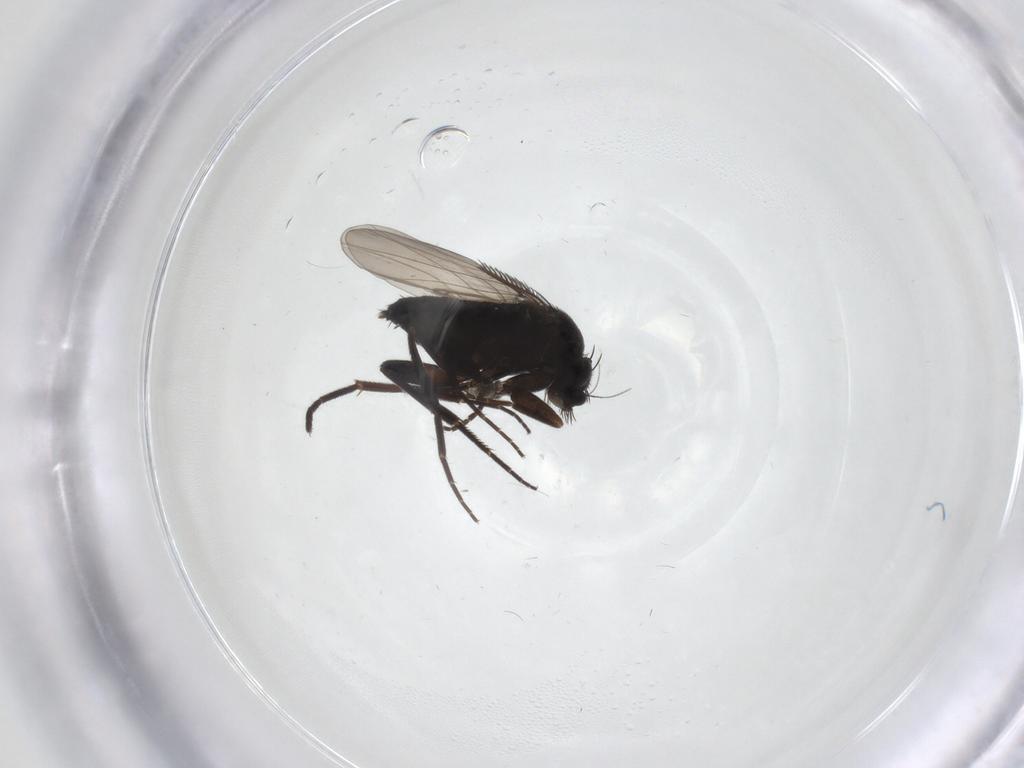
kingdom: Animalia
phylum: Arthropoda
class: Insecta
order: Diptera
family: Phoridae
